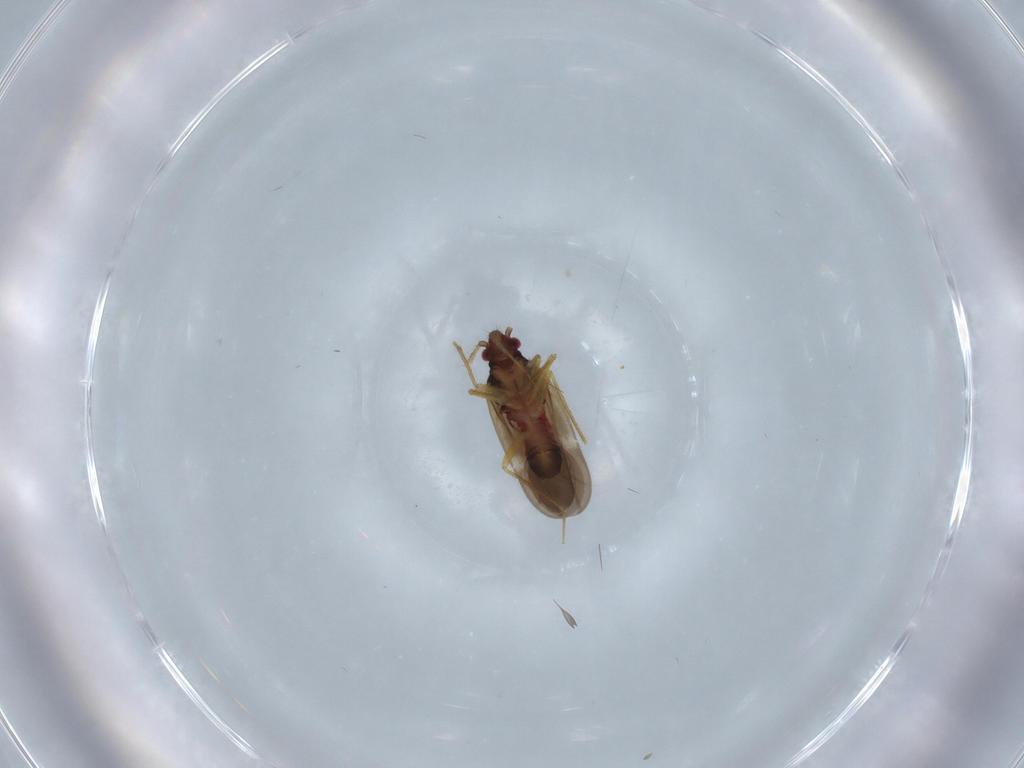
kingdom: Animalia
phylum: Arthropoda
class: Insecta
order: Hemiptera
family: Ceratocombidae
